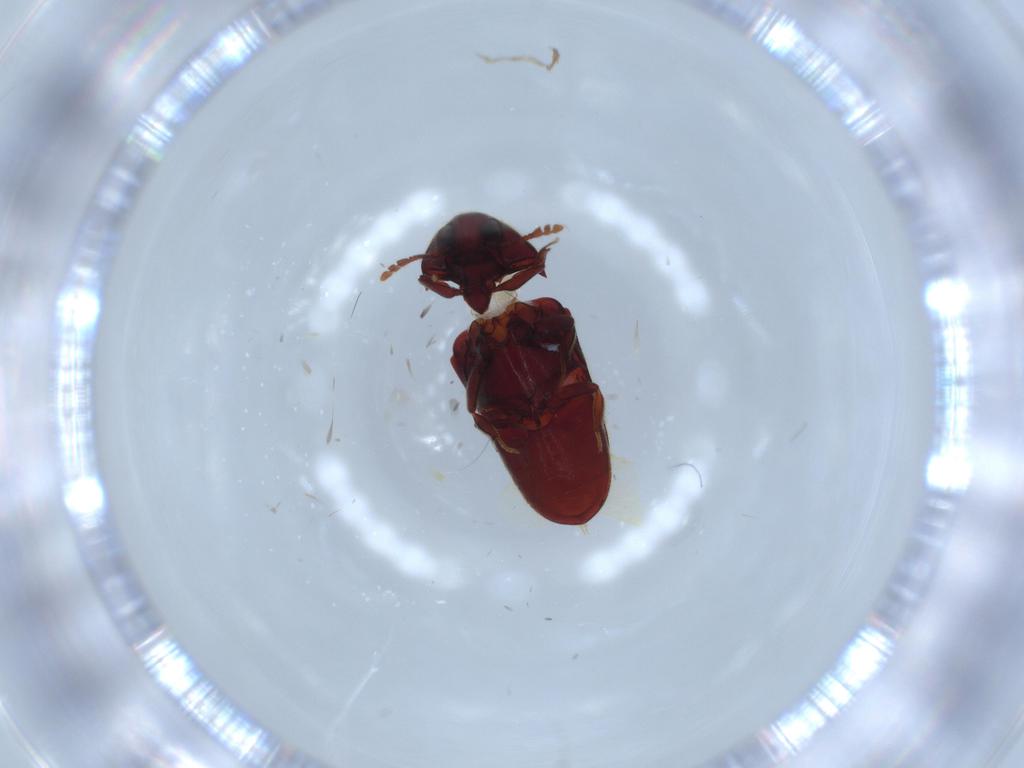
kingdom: Animalia
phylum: Arthropoda
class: Insecta
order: Coleoptera
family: Throscidae
